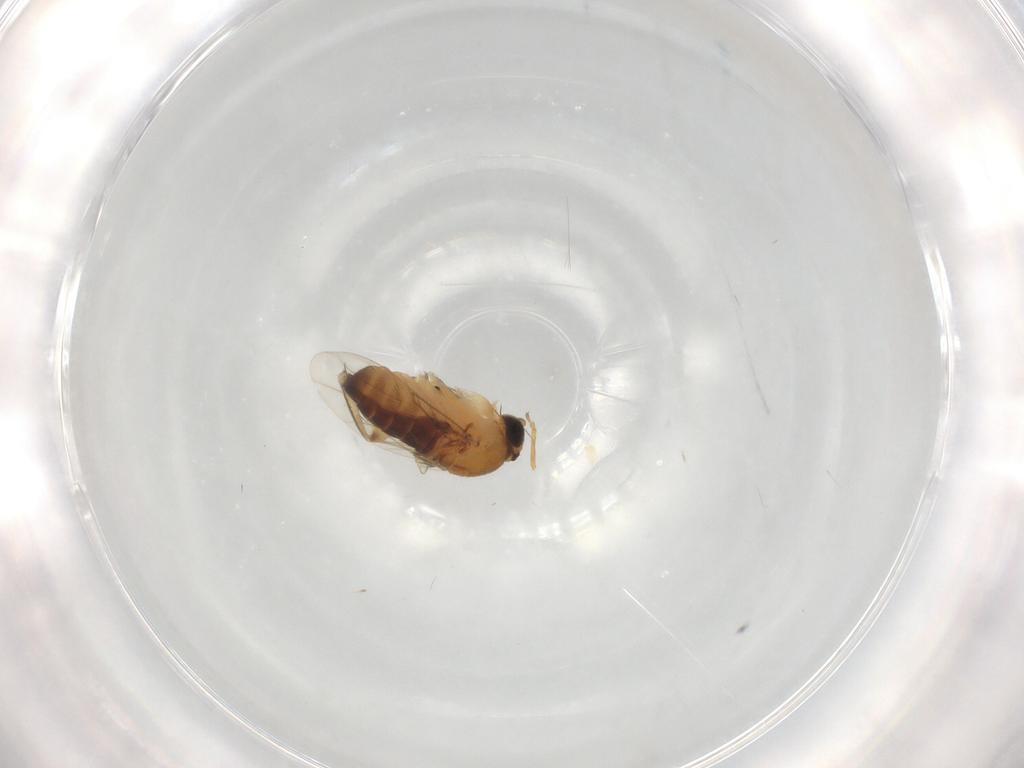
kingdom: Animalia
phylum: Arthropoda
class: Insecta
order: Diptera
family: Phoridae
